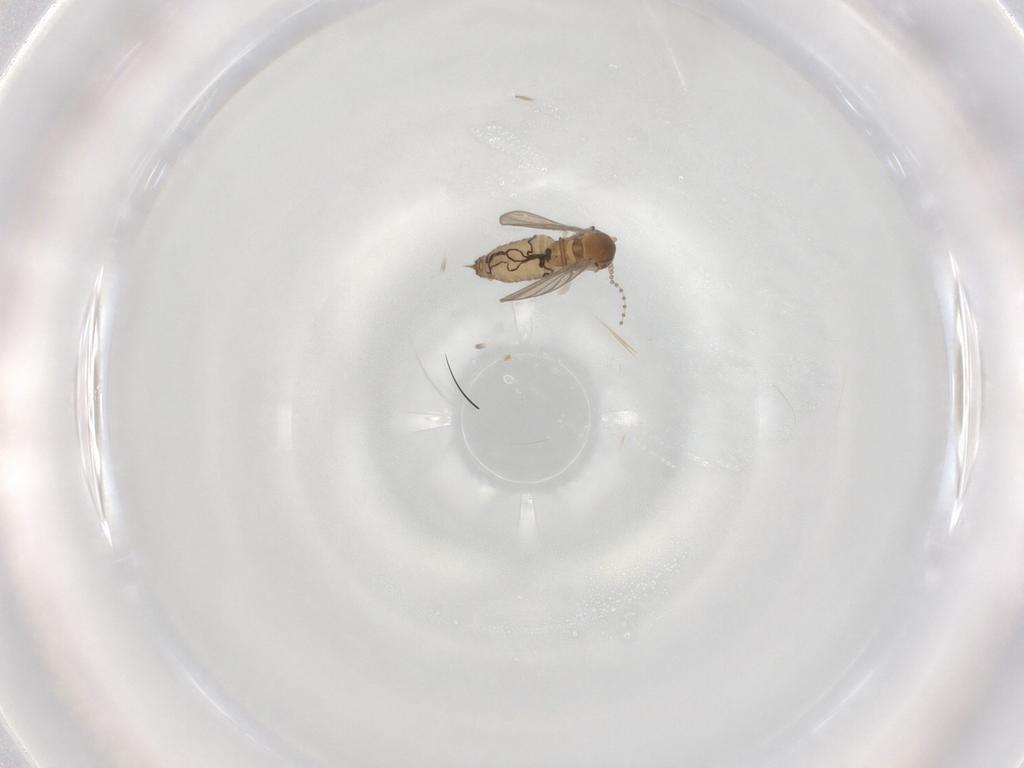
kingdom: Animalia
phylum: Arthropoda
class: Insecta
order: Diptera
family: Psychodidae
